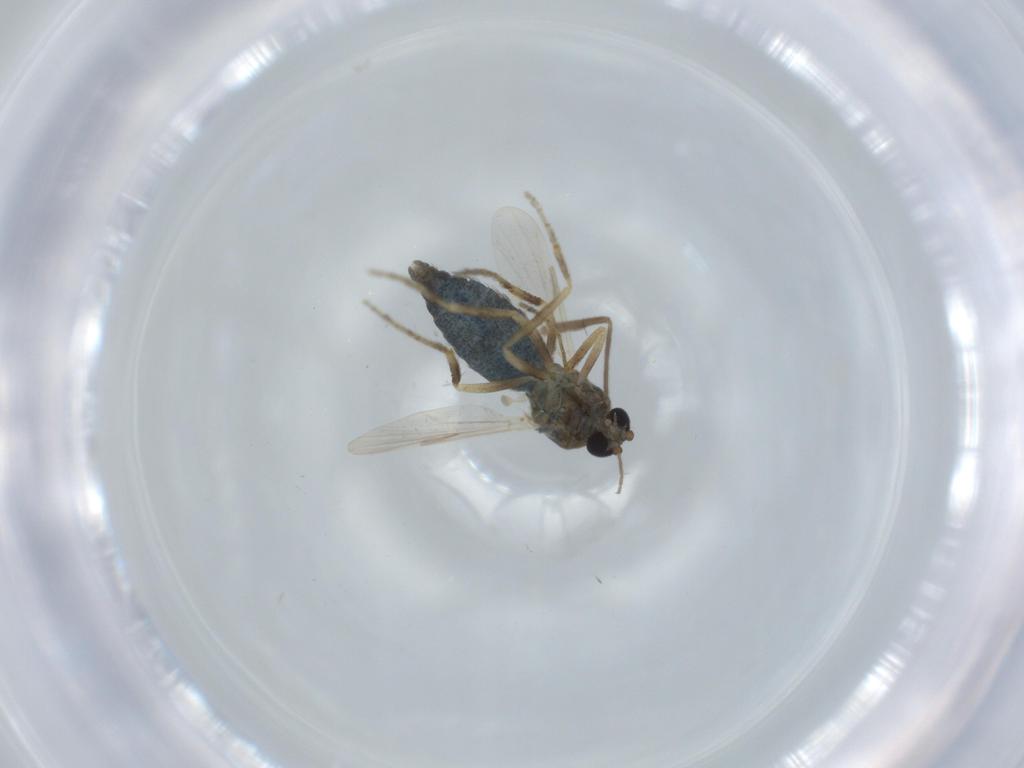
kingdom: Animalia
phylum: Arthropoda
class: Insecta
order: Diptera
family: Ceratopogonidae
